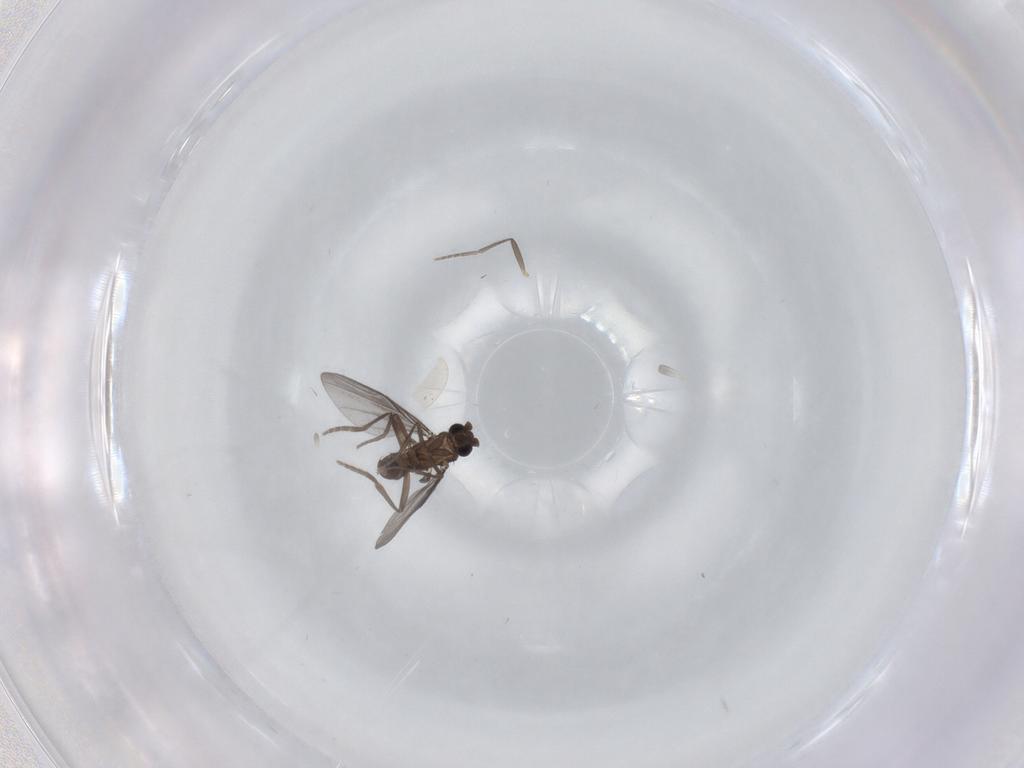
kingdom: Animalia
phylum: Arthropoda
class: Insecta
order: Diptera
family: Phoridae
